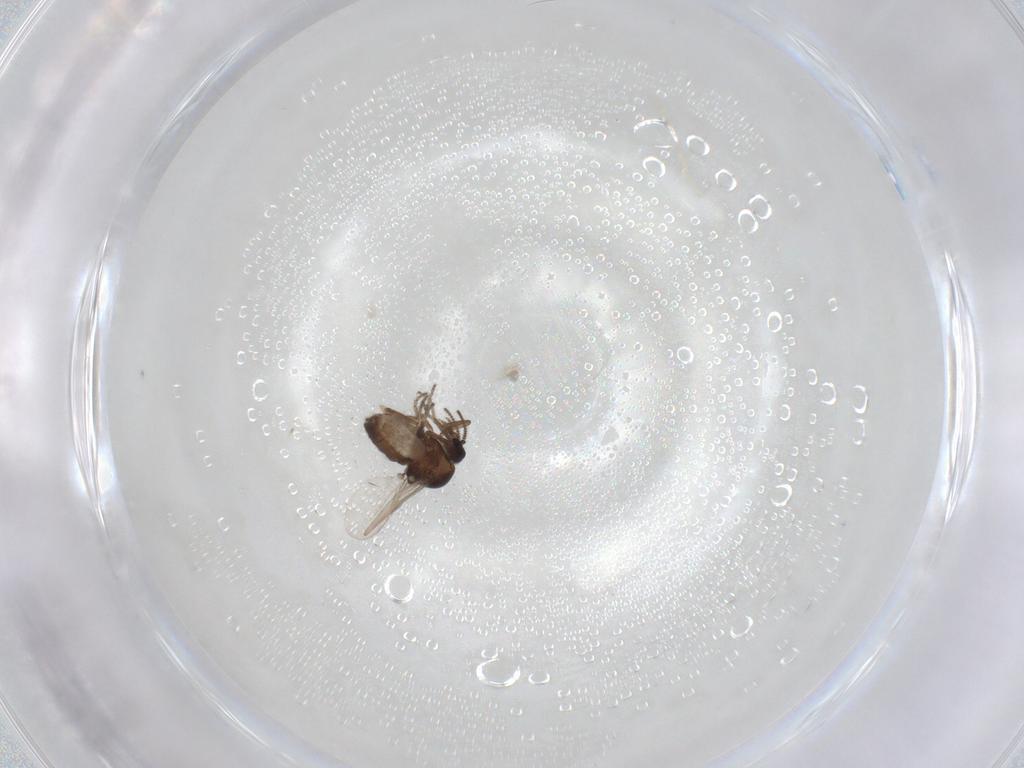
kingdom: Animalia
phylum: Arthropoda
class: Insecta
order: Diptera
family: Ceratopogonidae
